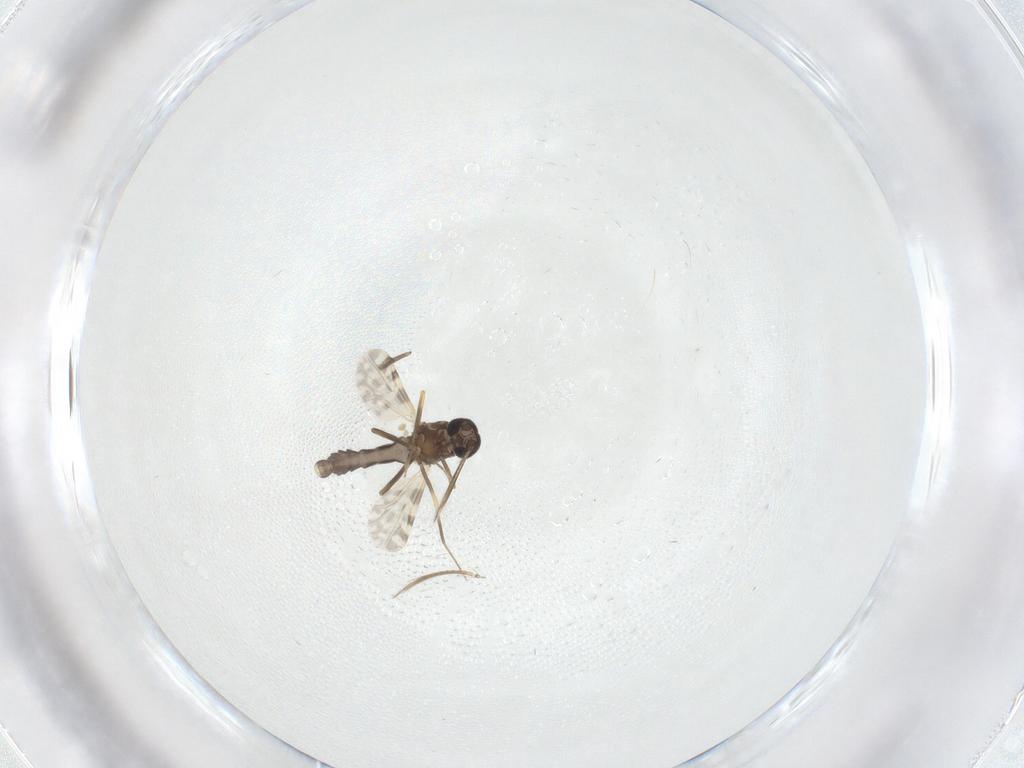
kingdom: Animalia
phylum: Arthropoda
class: Insecta
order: Diptera
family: Ceratopogonidae
